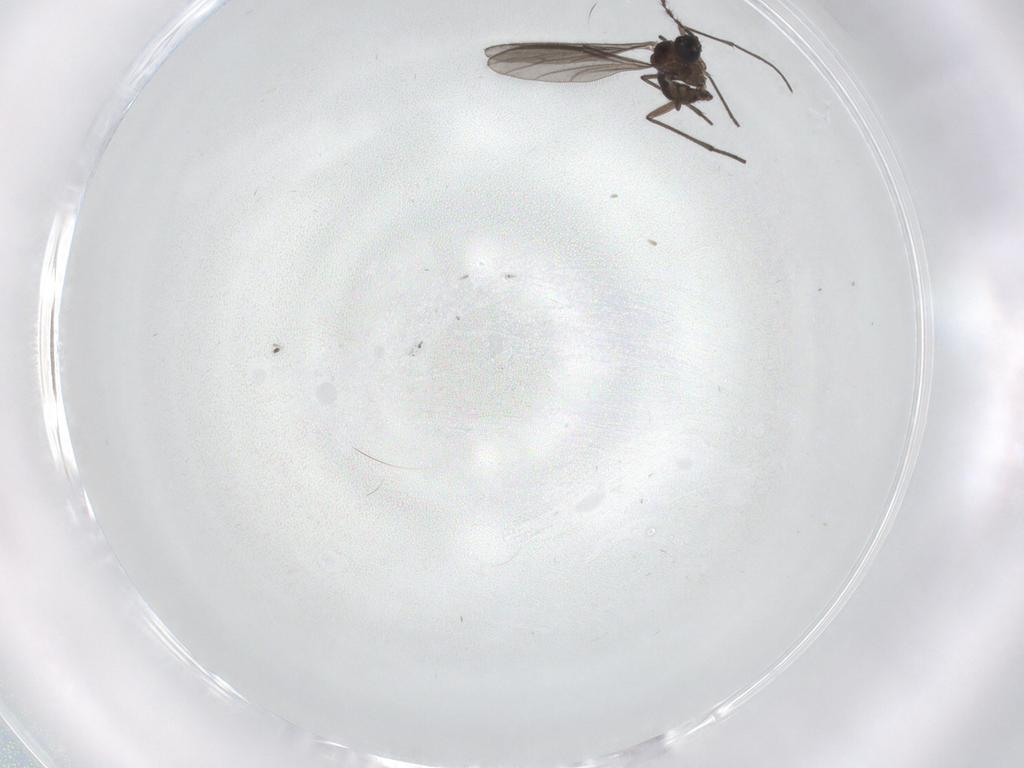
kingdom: Animalia
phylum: Arthropoda
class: Insecta
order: Diptera
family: Sciaridae
